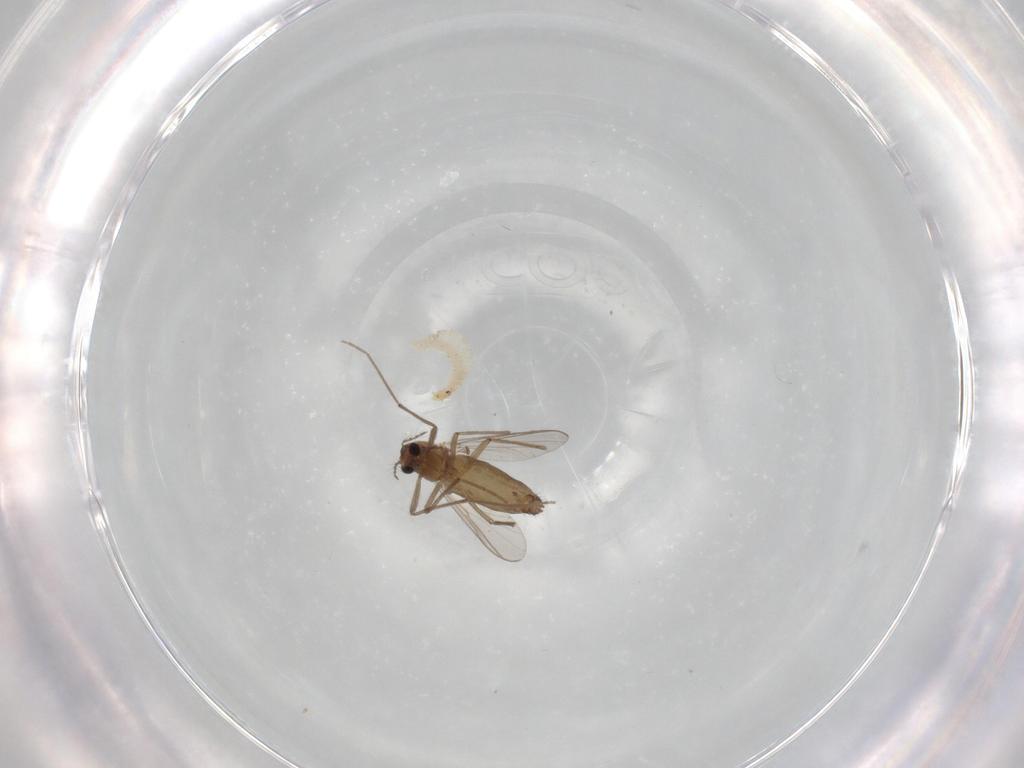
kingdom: Animalia
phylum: Arthropoda
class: Insecta
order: Diptera
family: Chironomidae
